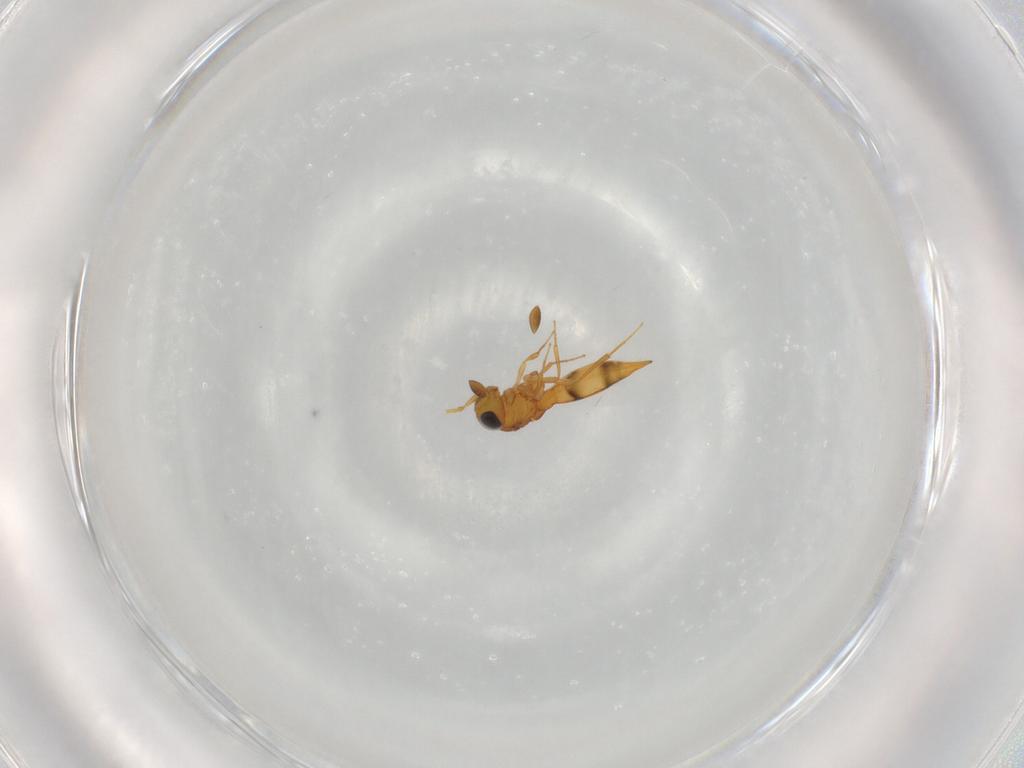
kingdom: Animalia
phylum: Arthropoda
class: Insecta
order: Hymenoptera
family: Scelionidae
